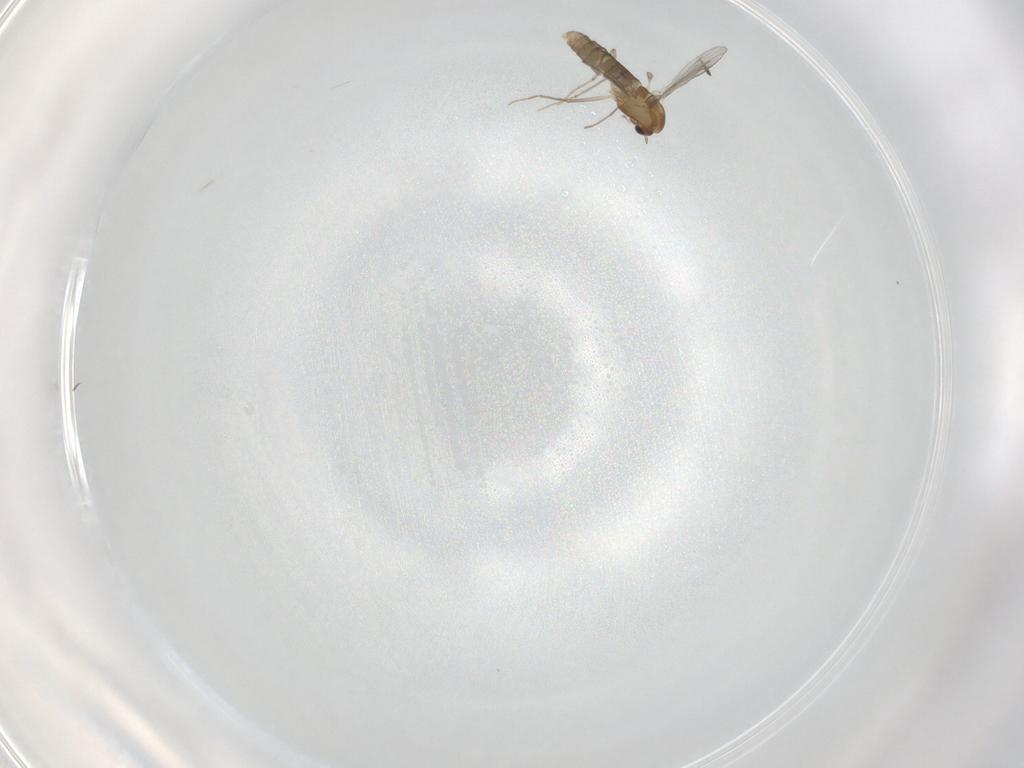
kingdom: Animalia
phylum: Arthropoda
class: Insecta
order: Diptera
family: Chironomidae
